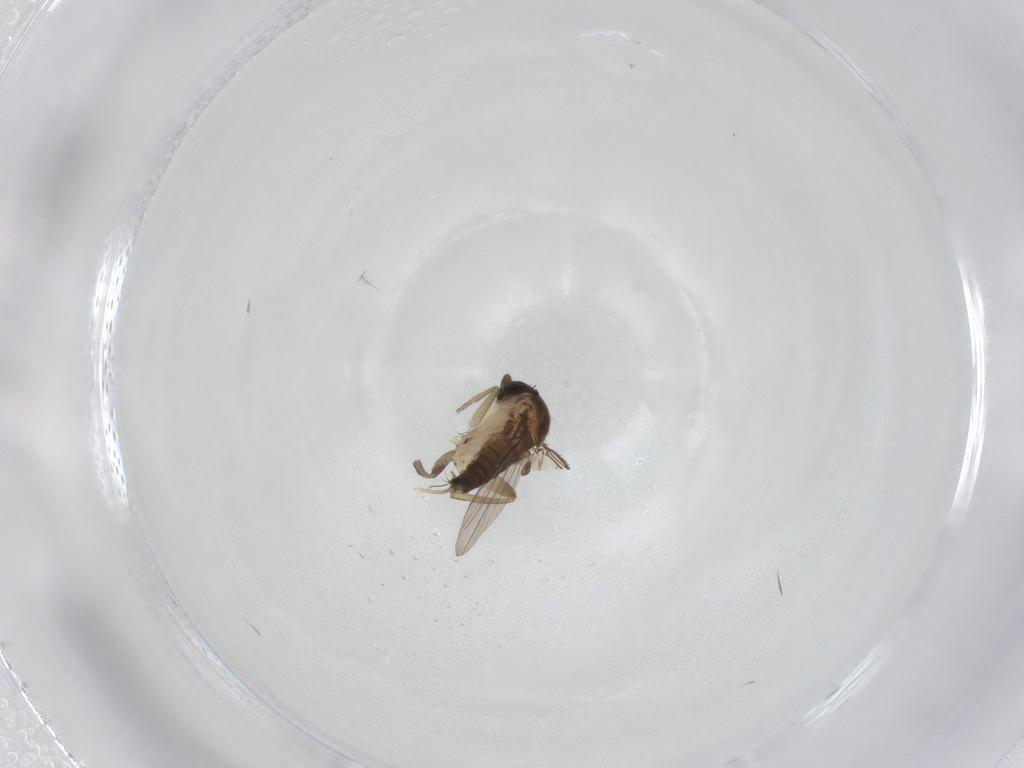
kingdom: Animalia
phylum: Arthropoda
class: Insecta
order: Diptera
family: Phoridae
